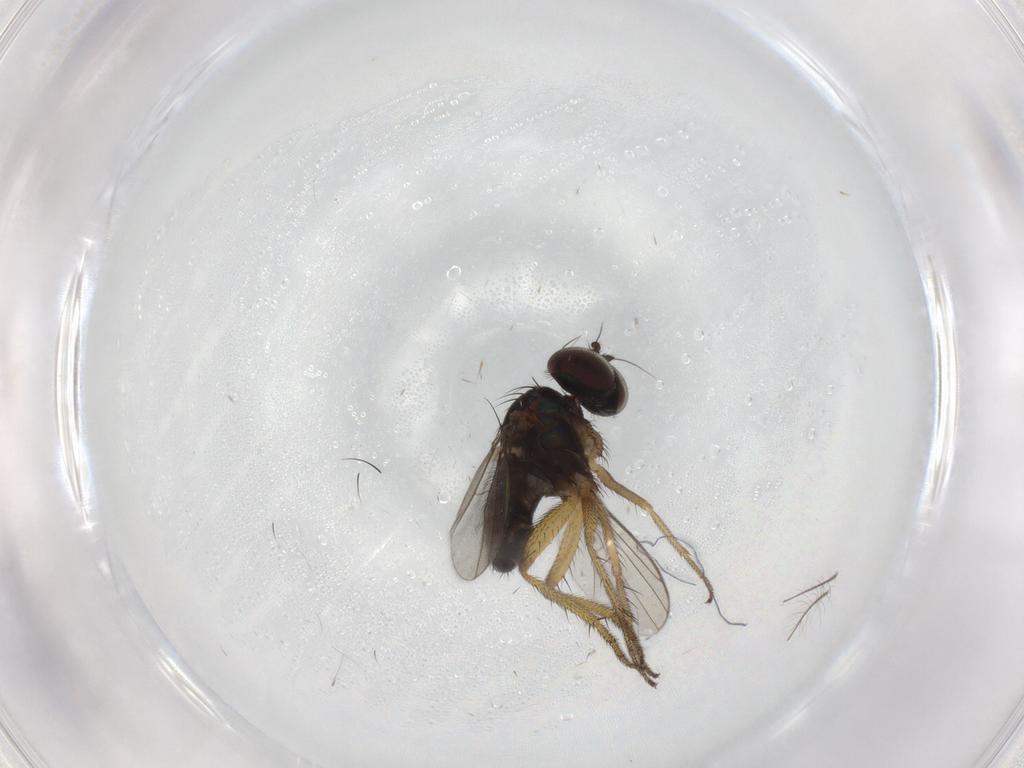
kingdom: Animalia
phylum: Arthropoda
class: Insecta
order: Diptera
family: Dolichopodidae
